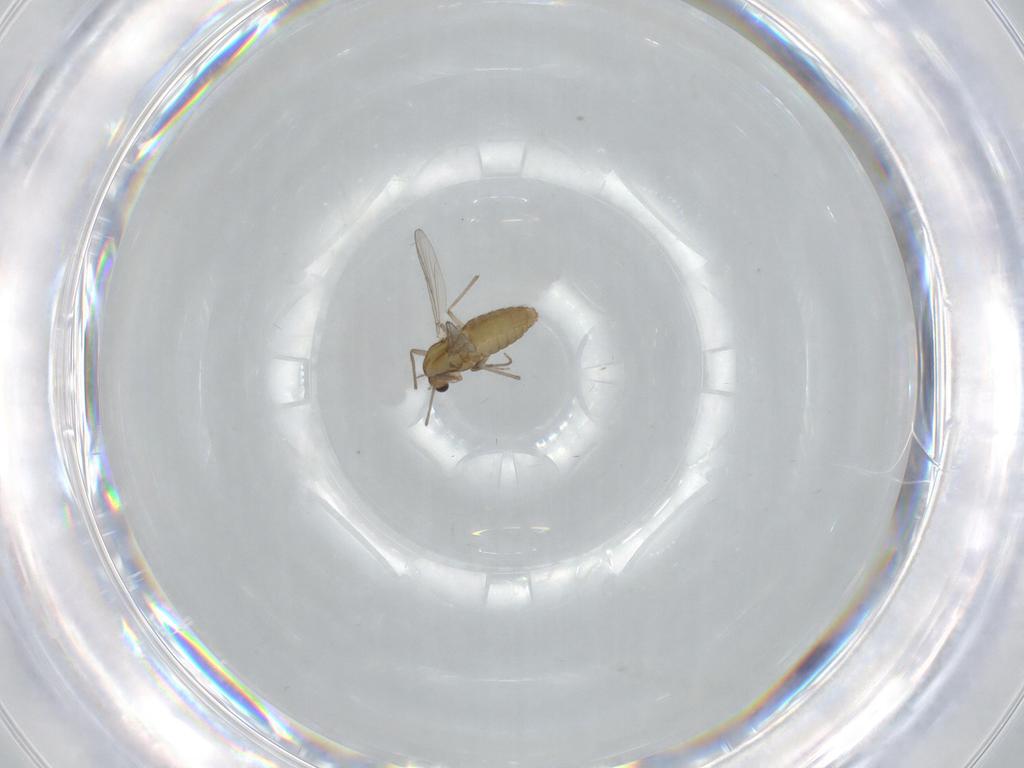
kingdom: Animalia
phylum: Arthropoda
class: Insecta
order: Diptera
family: Chironomidae
